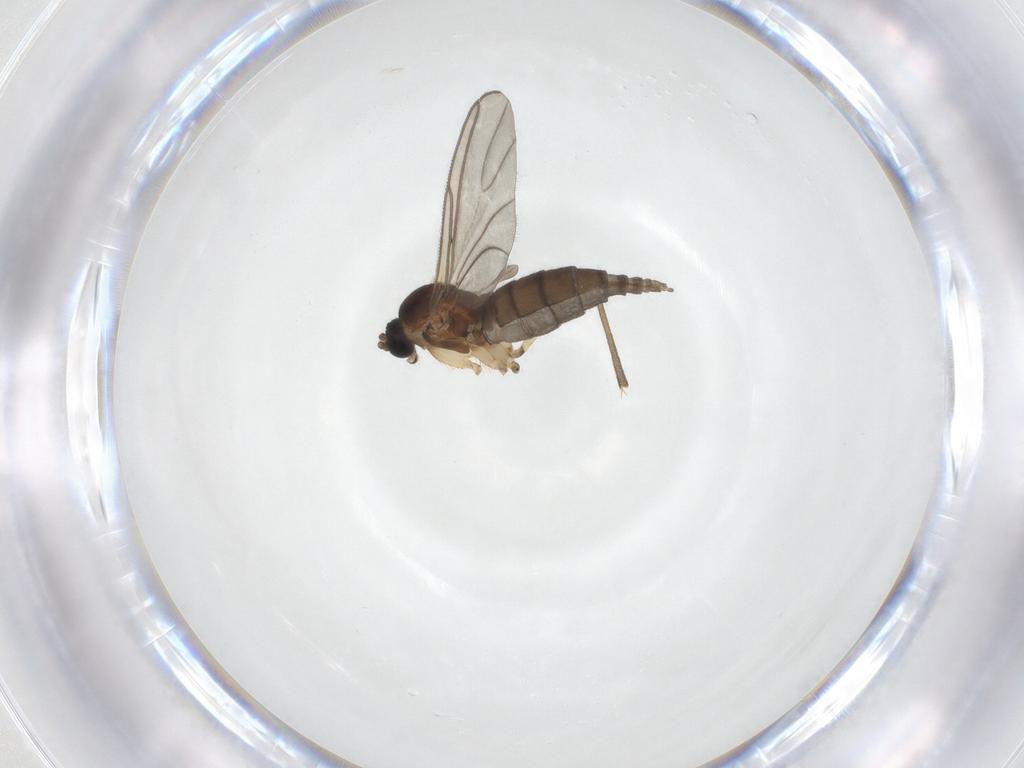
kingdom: Animalia
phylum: Arthropoda
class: Insecta
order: Diptera
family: Sciaridae
